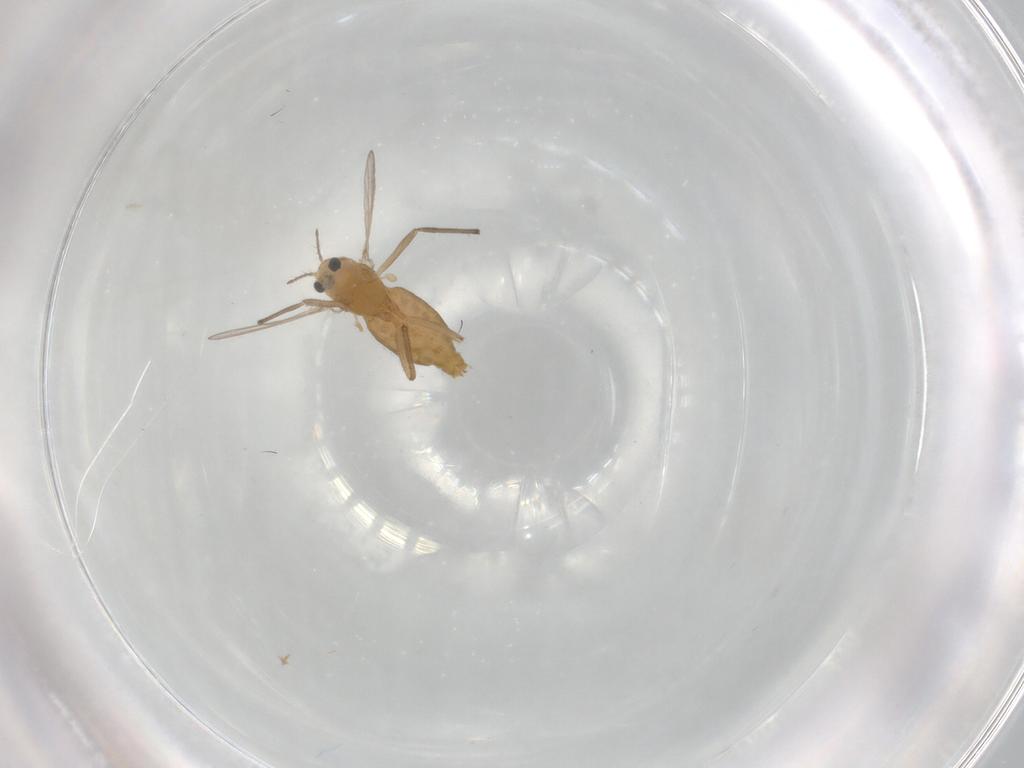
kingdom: Animalia
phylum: Arthropoda
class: Insecta
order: Diptera
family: Chironomidae
